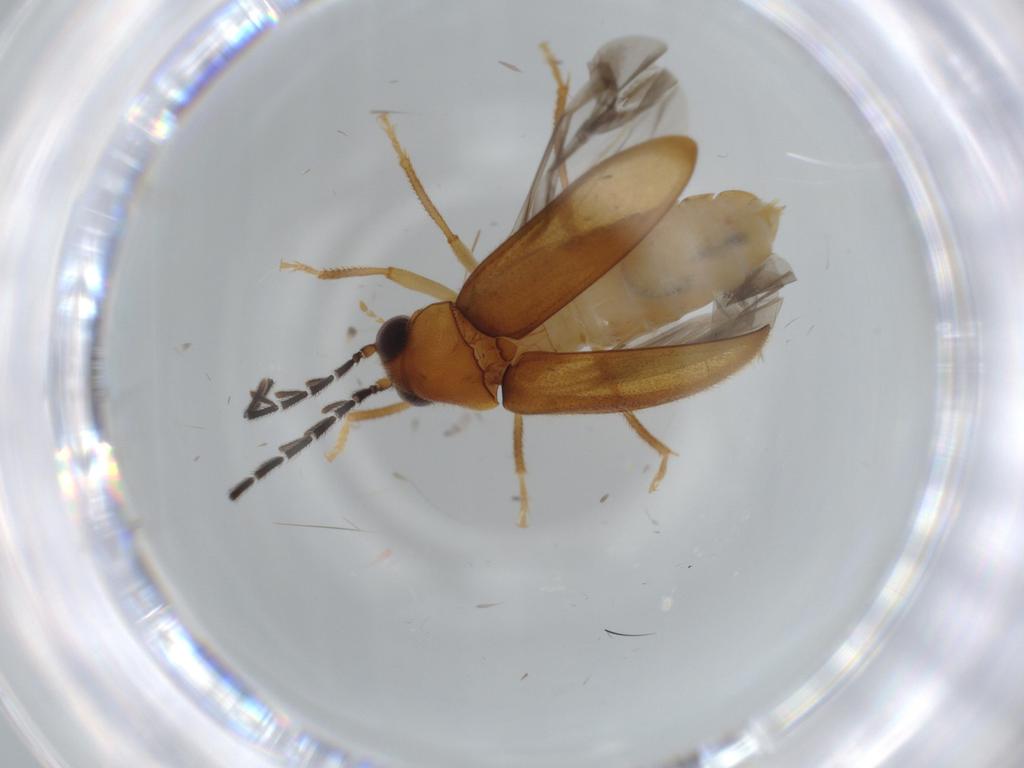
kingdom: Animalia
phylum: Arthropoda
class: Insecta
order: Coleoptera
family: Ptilodactylidae
